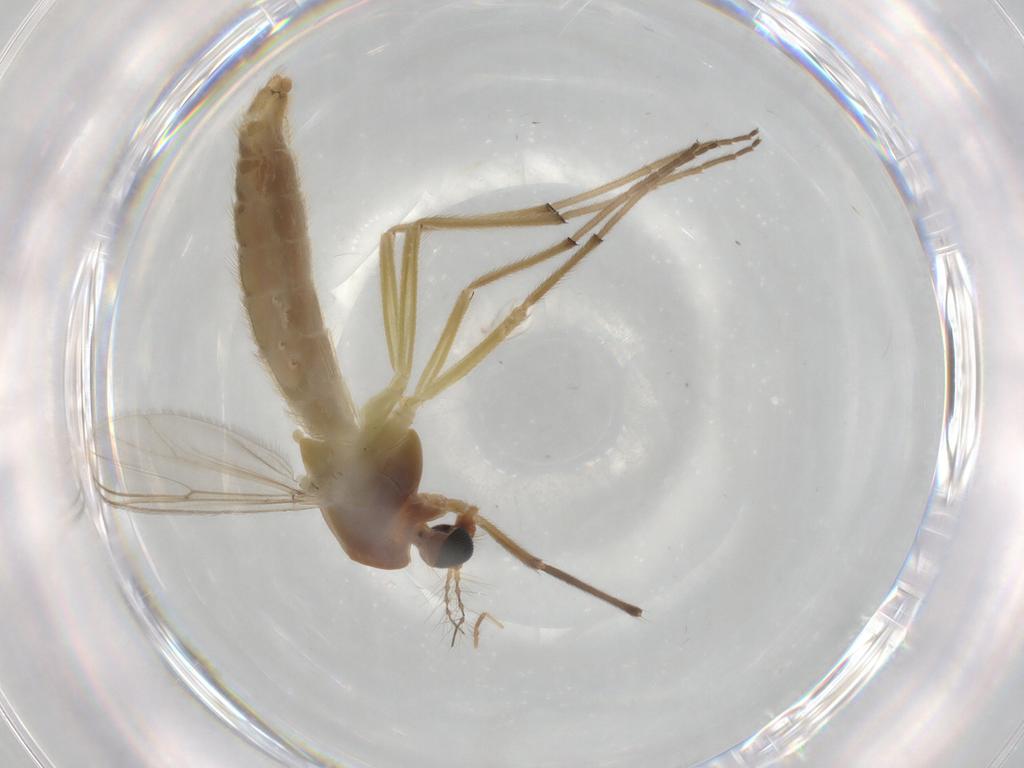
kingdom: Animalia
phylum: Arthropoda
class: Insecta
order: Diptera
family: Chironomidae
